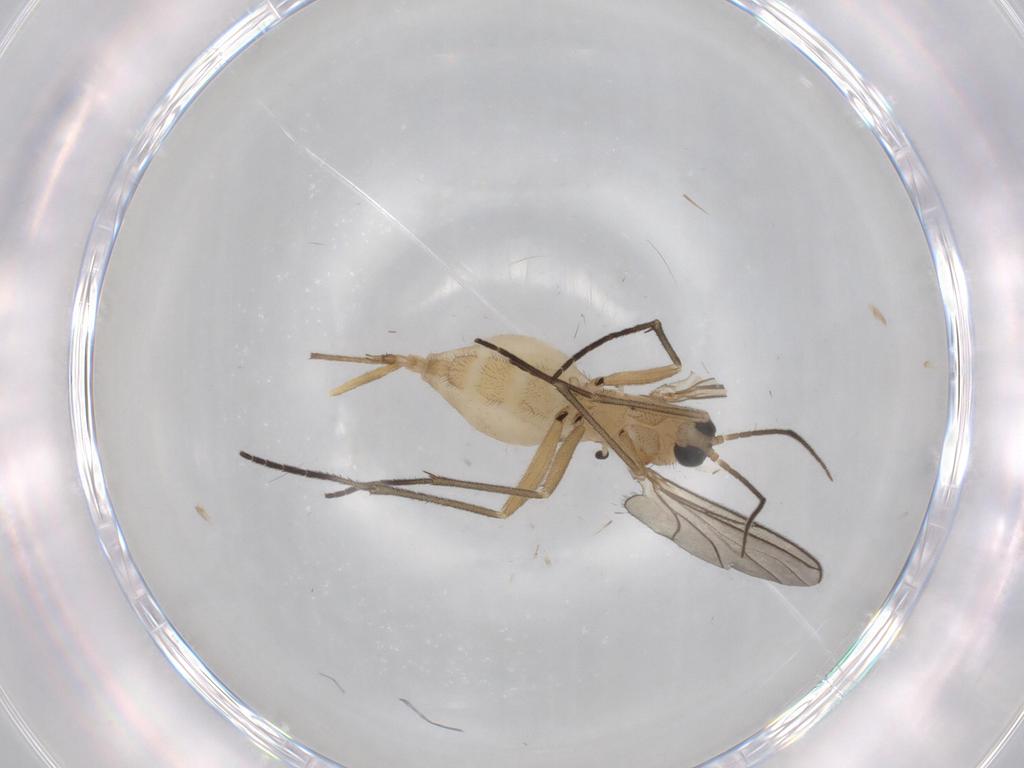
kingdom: Animalia
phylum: Arthropoda
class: Insecta
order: Diptera
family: Sciaridae
